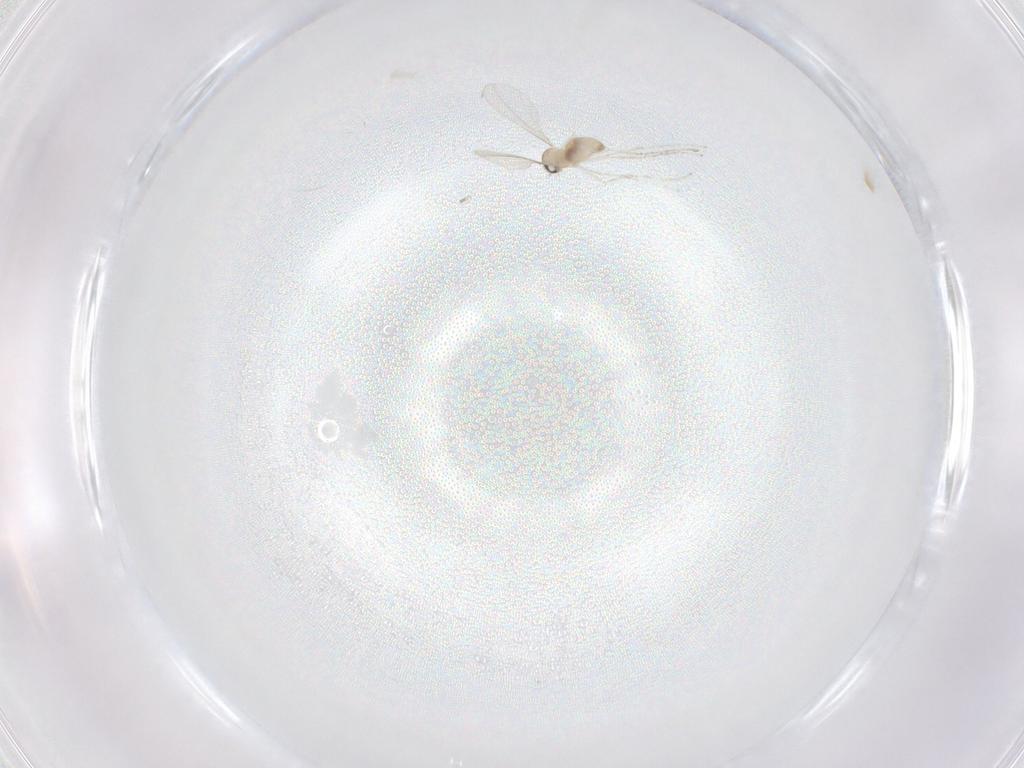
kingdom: Animalia
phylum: Arthropoda
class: Insecta
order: Diptera
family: Cecidomyiidae
